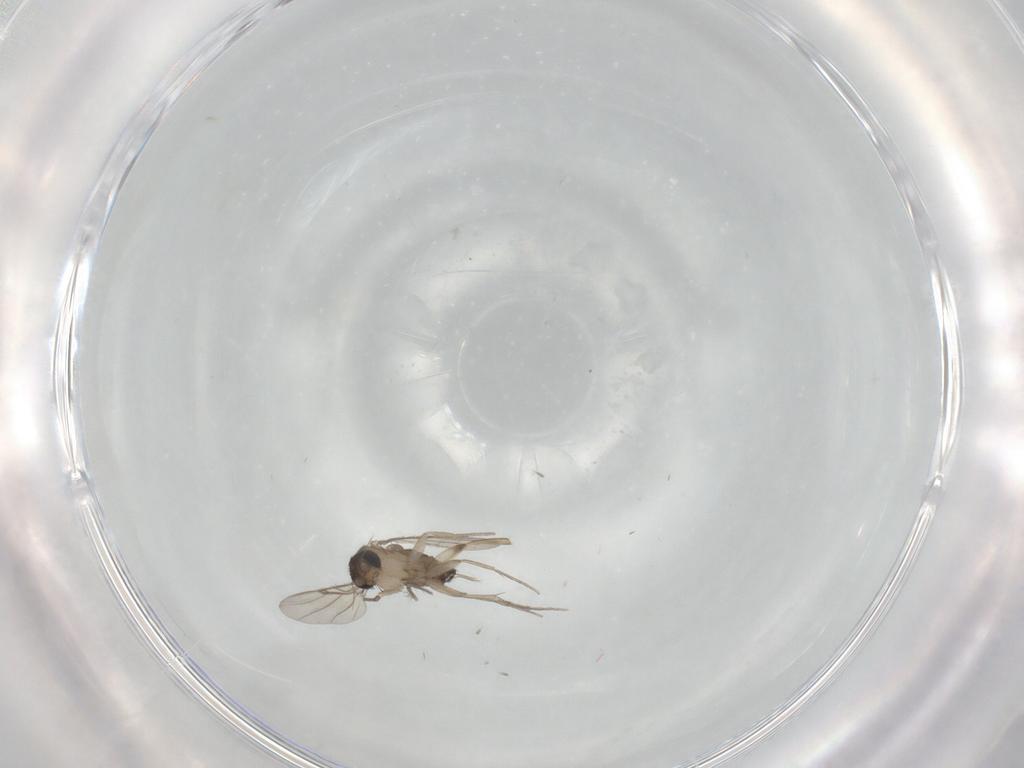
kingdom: Animalia
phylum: Arthropoda
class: Insecta
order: Diptera
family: Phoridae
